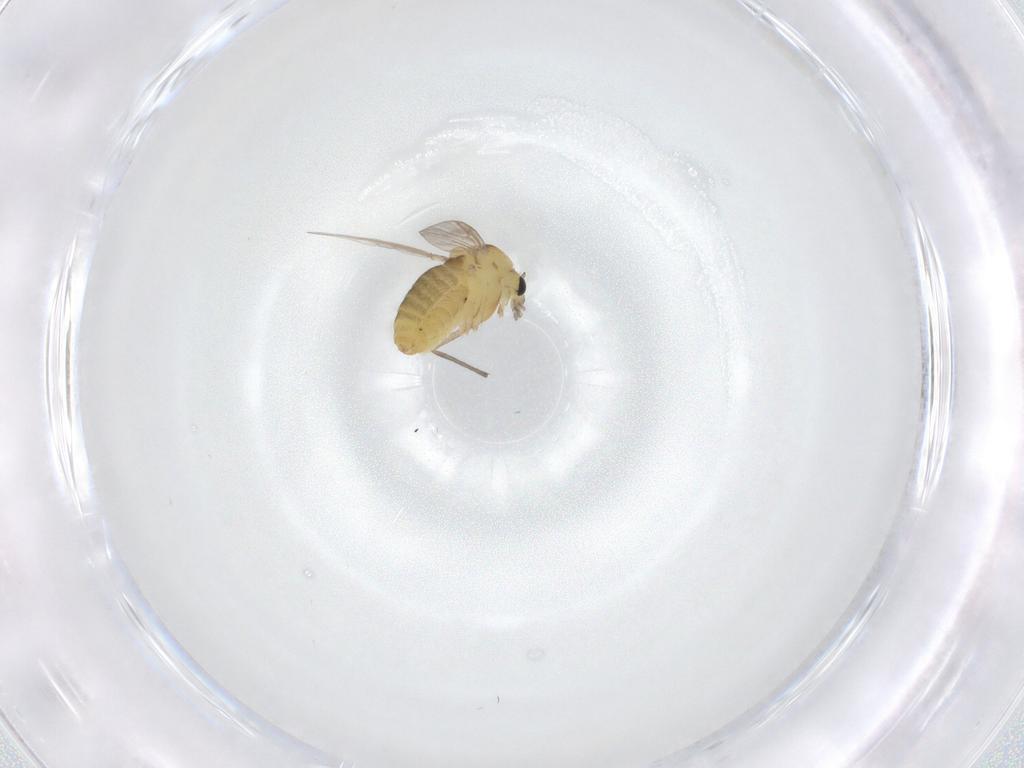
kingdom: Animalia
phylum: Arthropoda
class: Insecta
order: Diptera
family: Chironomidae
